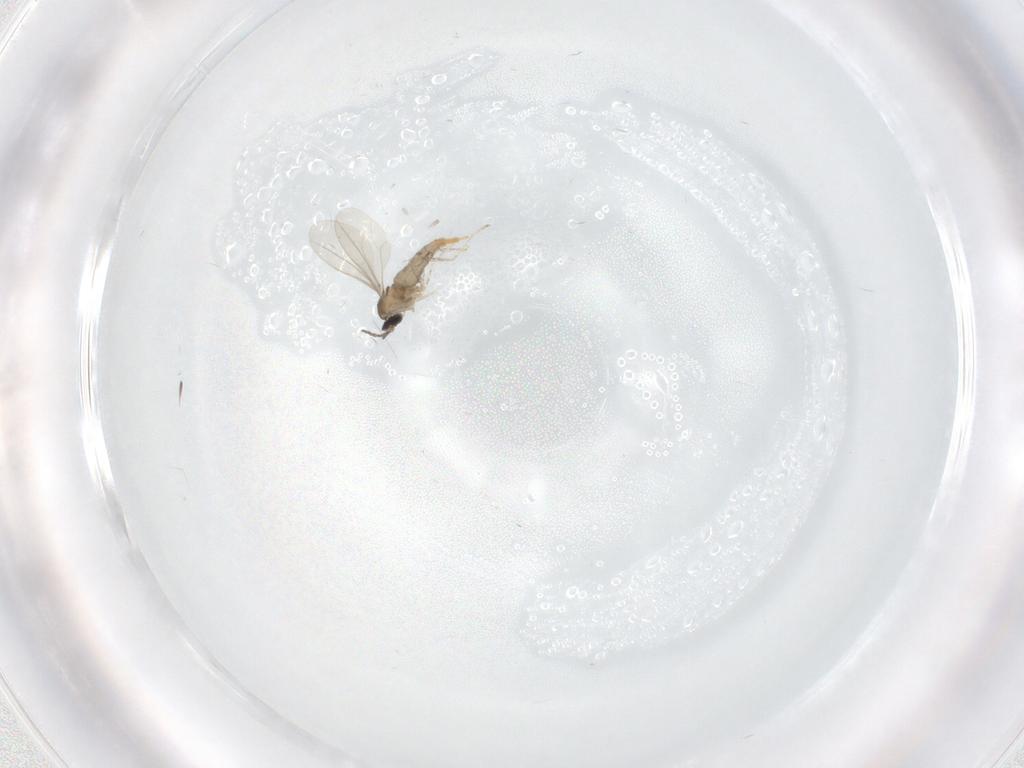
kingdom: Animalia
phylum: Arthropoda
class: Insecta
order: Diptera
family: Cecidomyiidae
